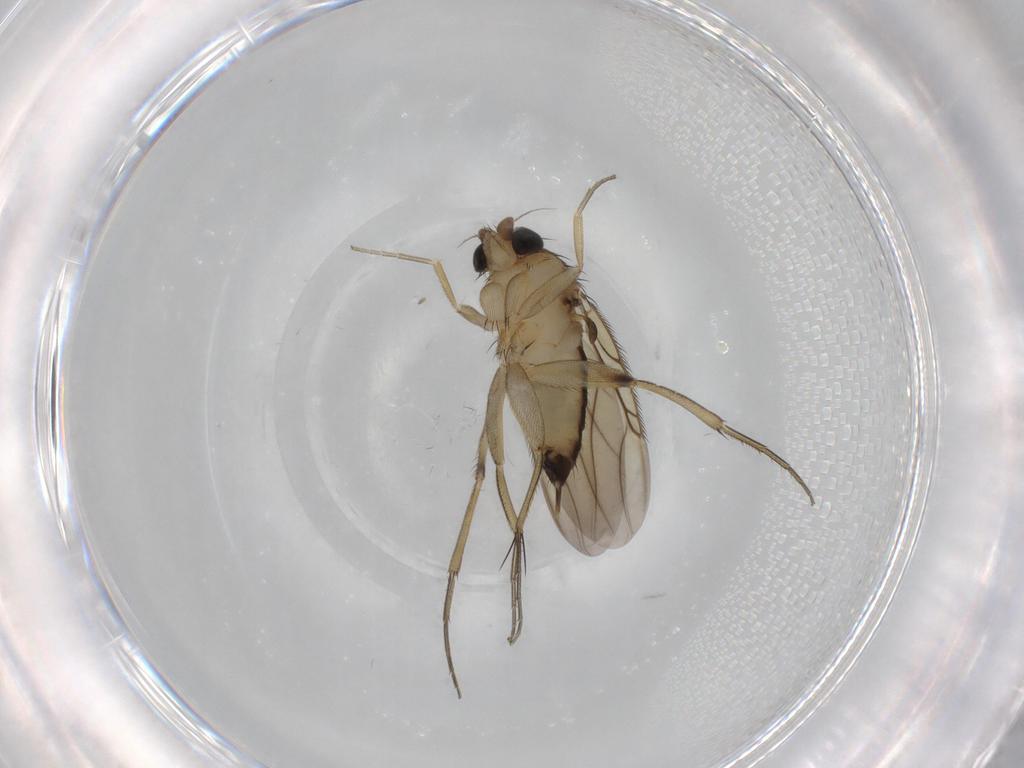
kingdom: Animalia
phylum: Arthropoda
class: Insecta
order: Diptera
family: Phoridae
